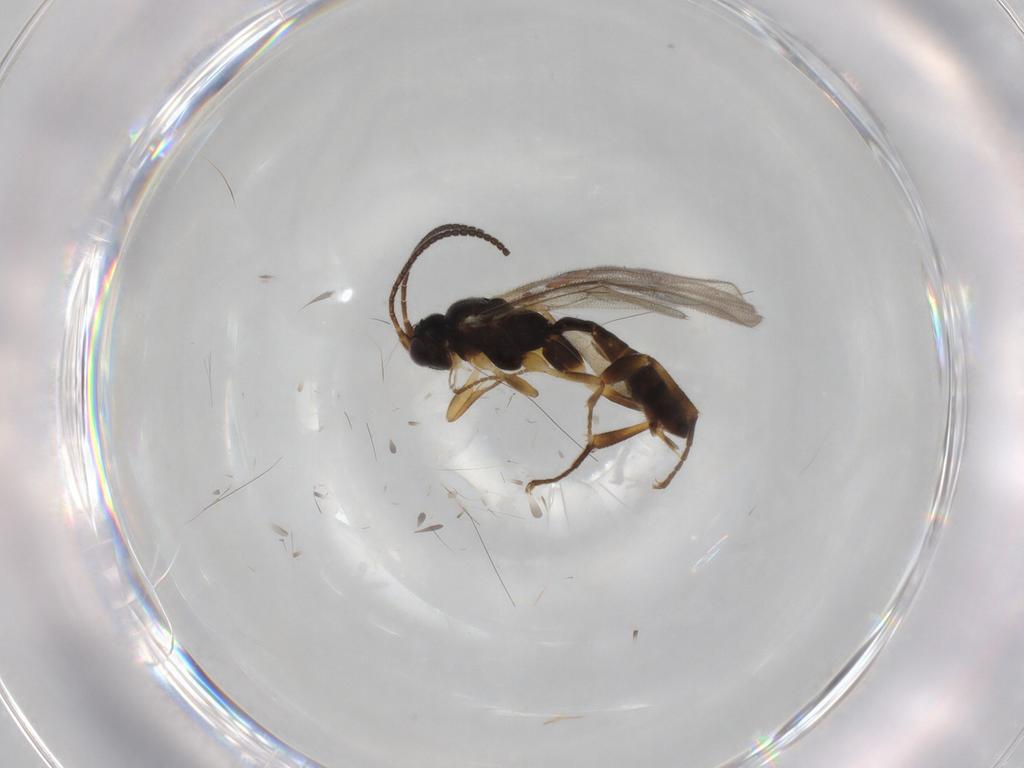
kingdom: Animalia
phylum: Arthropoda
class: Insecta
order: Hymenoptera
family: Ichneumonidae
